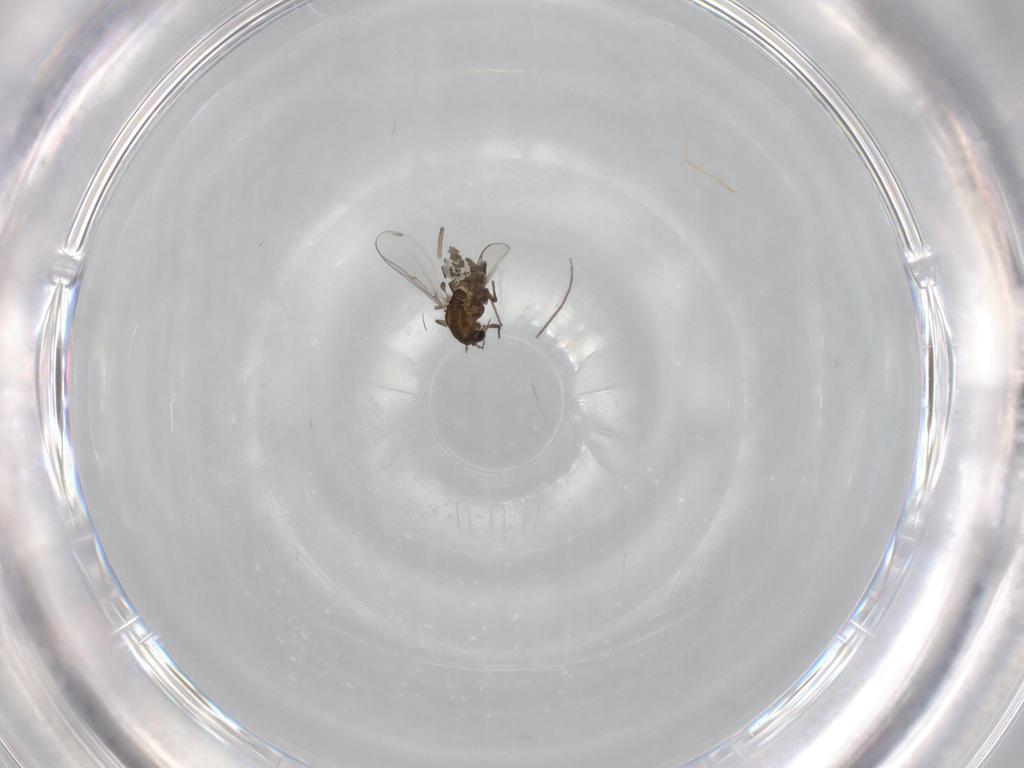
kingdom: Animalia
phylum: Arthropoda
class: Insecta
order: Diptera
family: Chironomidae
